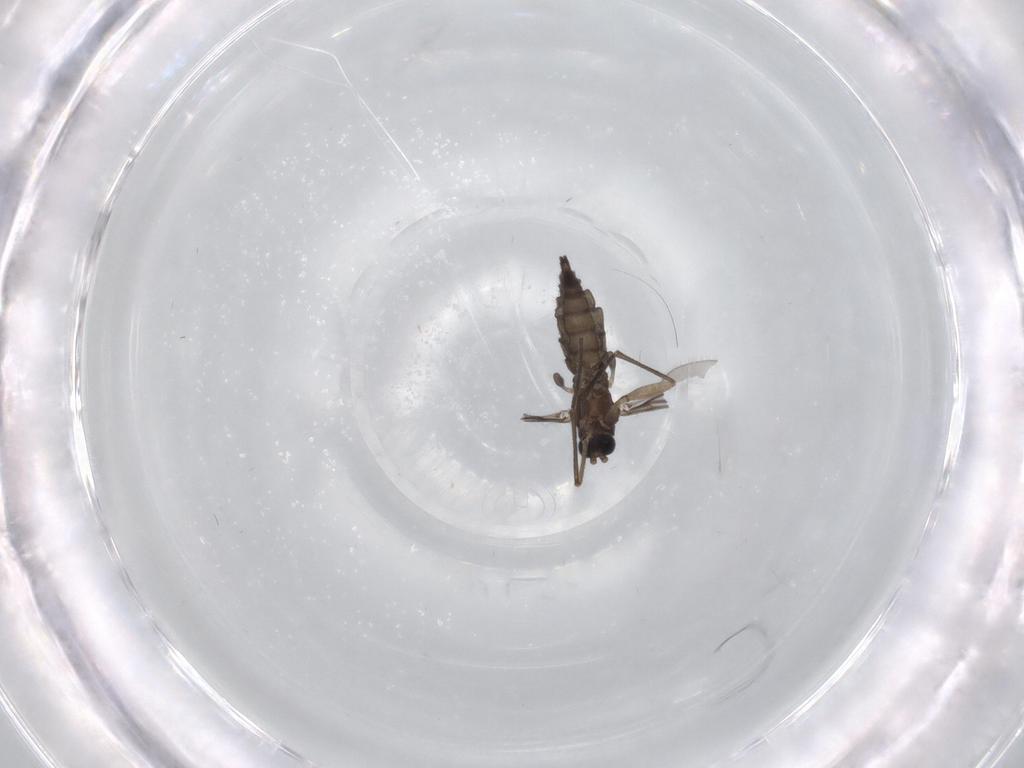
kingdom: Animalia
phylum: Arthropoda
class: Insecta
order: Diptera
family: Sciaridae
